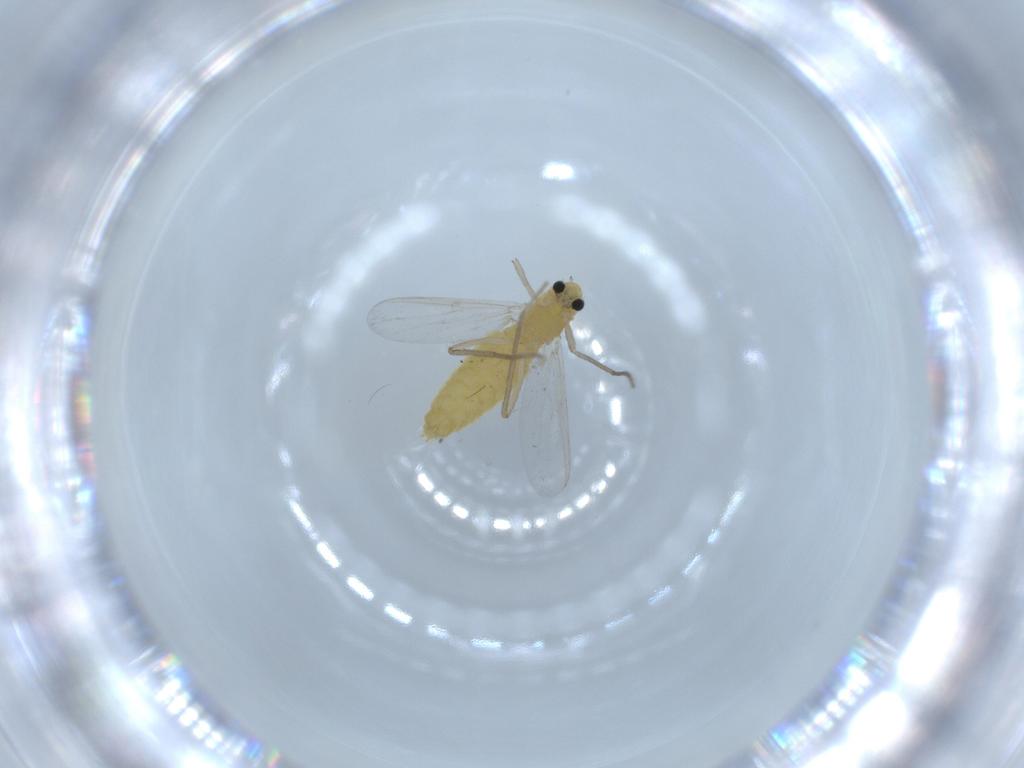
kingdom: Animalia
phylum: Arthropoda
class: Insecta
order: Diptera
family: Chironomidae
